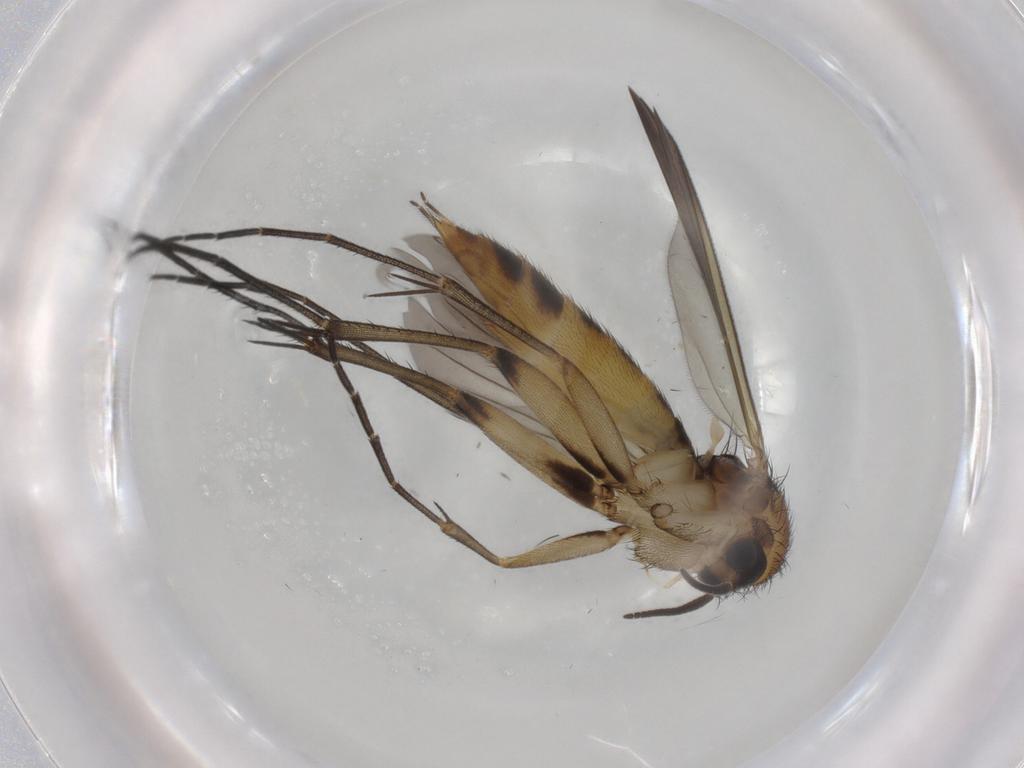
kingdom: Animalia
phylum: Arthropoda
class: Insecta
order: Diptera
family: Mycetophilidae
